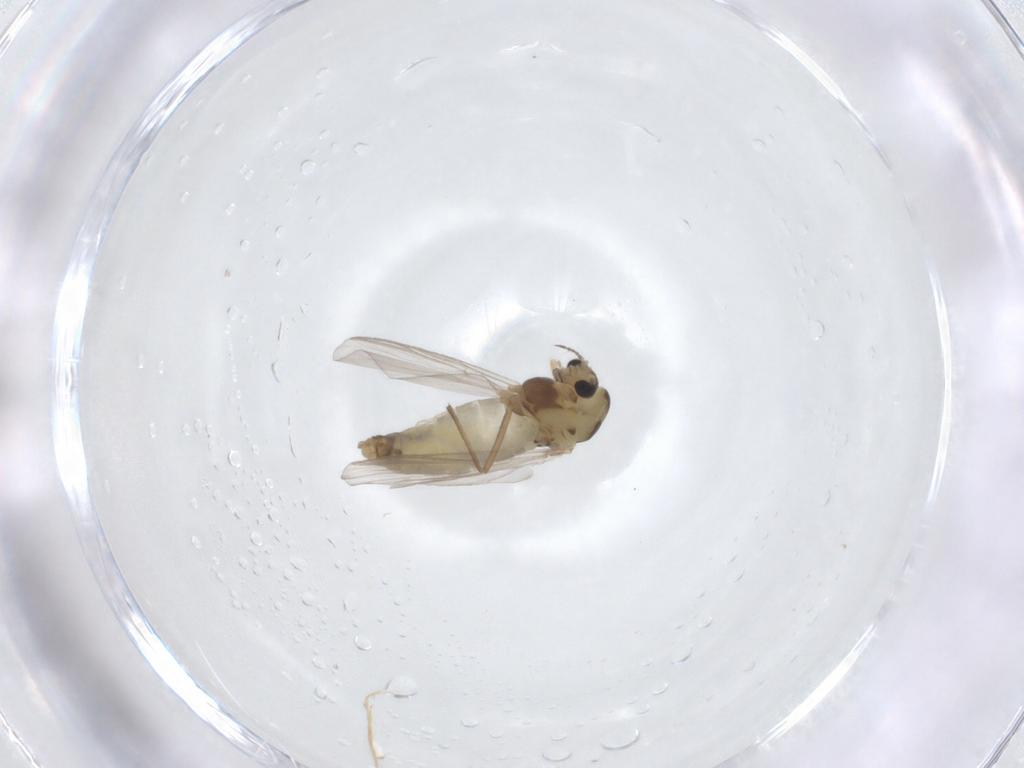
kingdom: Animalia
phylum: Arthropoda
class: Insecta
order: Diptera
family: Chironomidae
